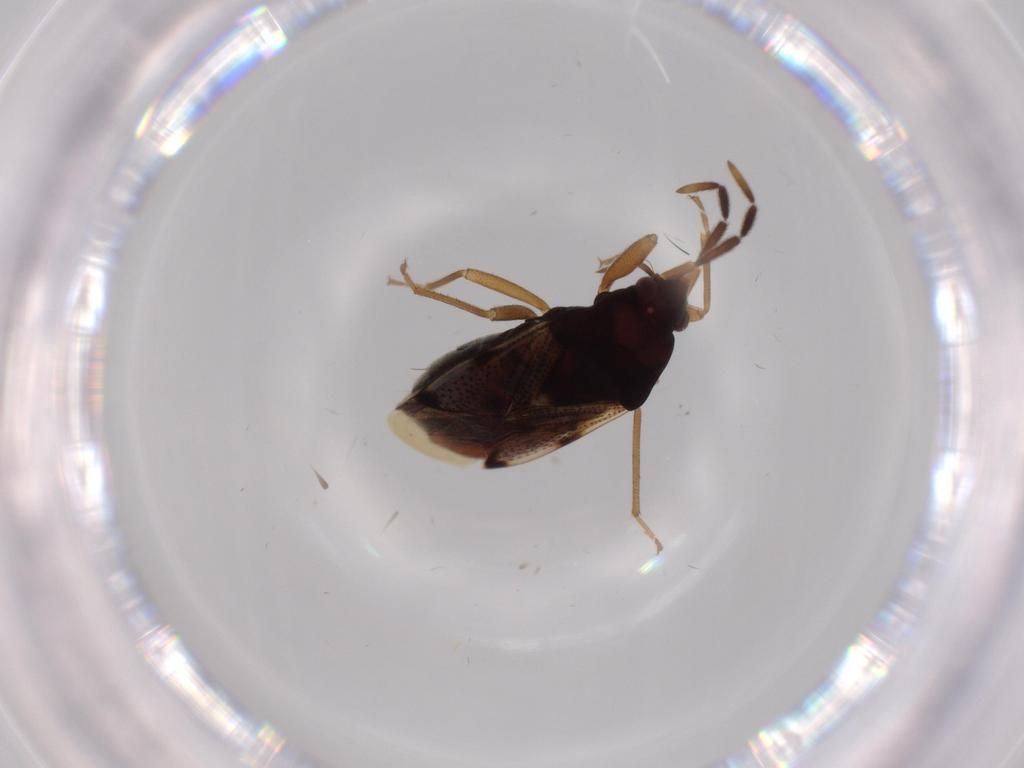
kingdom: Animalia
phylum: Arthropoda
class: Insecta
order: Hemiptera
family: Rhyparochromidae
